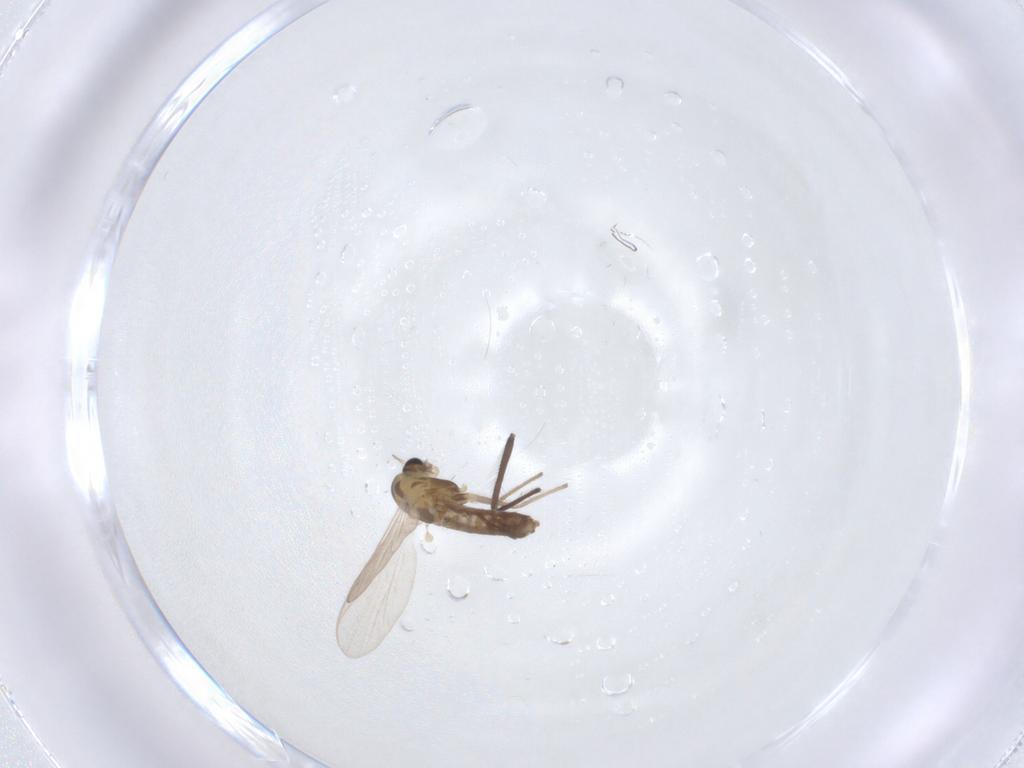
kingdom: Animalia
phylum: Arthropoda
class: Insecta
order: Diptera
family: Chironomidae
